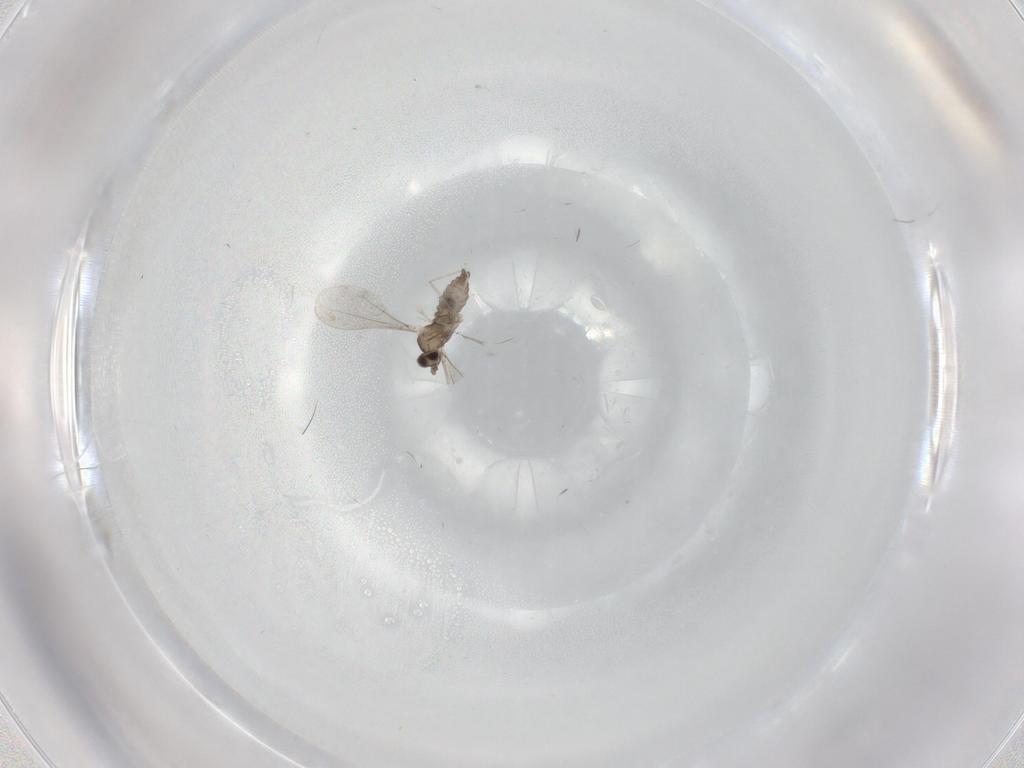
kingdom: Animalia
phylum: Arthropoda
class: Insecta
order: Diptera
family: Cecidomyiidae
